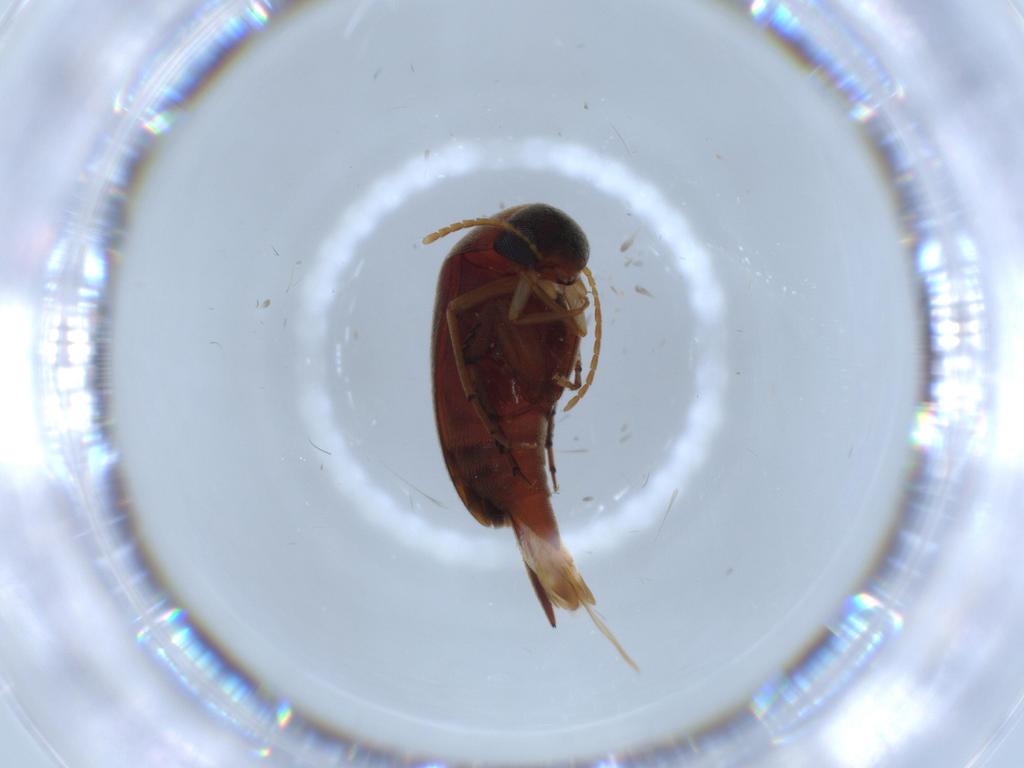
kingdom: Animalia
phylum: Arthropoda
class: Insecta
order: Coleoptera
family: Mordellidae
